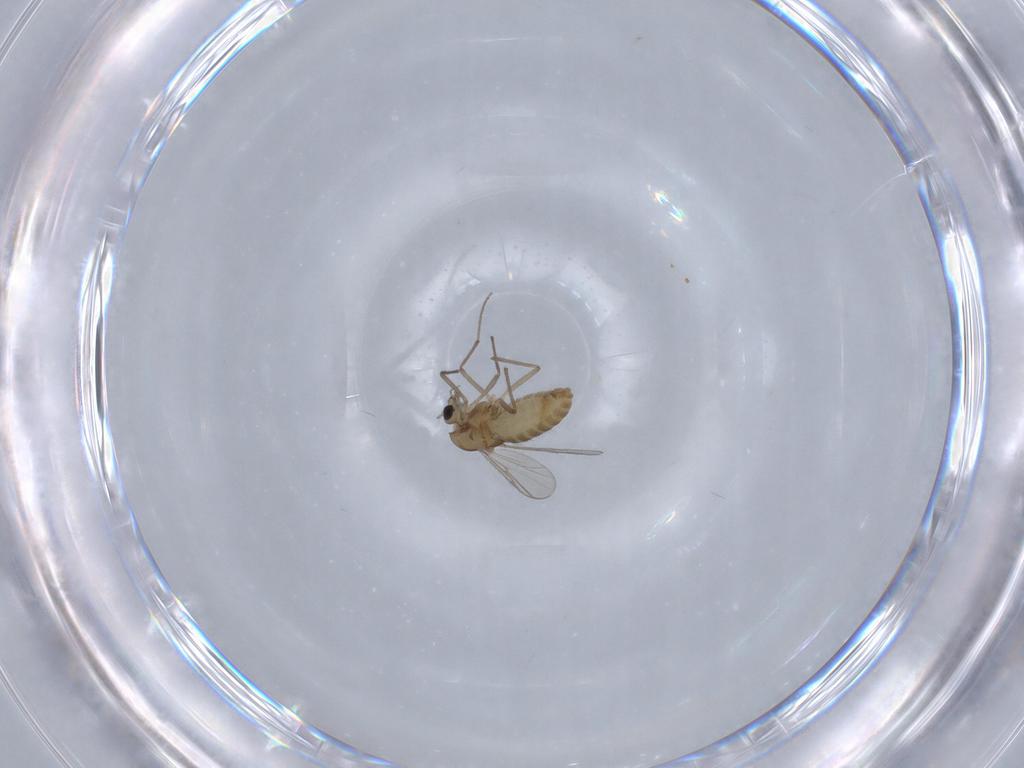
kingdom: Animalia
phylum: Arthropoda
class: Insecta
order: Diptera
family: Chironomidae
